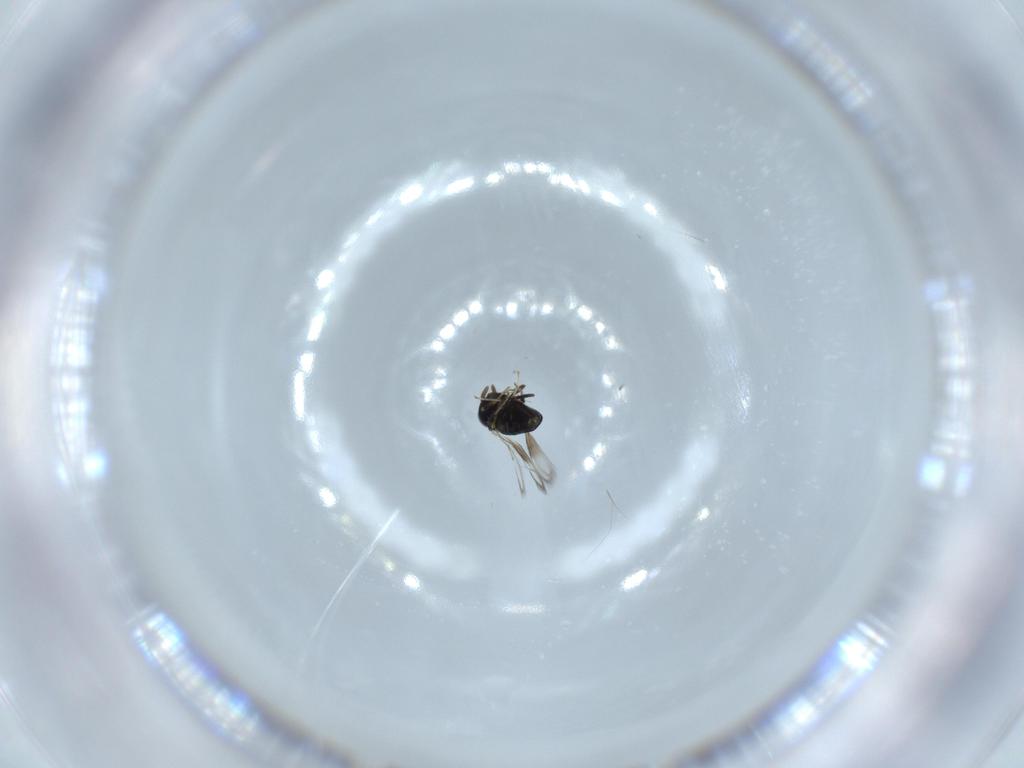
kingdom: Animalia
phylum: Arthropoda
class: Insecta
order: Hymenoptera
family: Signiphoridae
